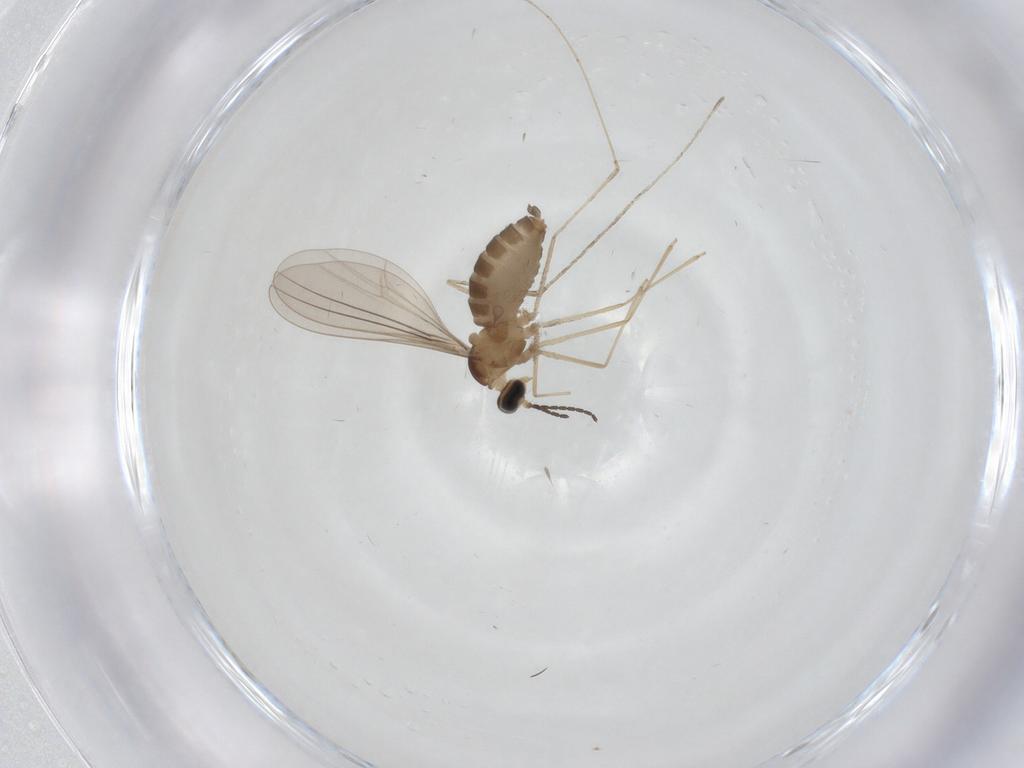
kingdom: Animalia
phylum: Arthropoda
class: Insecta
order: Diptera
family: Cecidomyiidae
